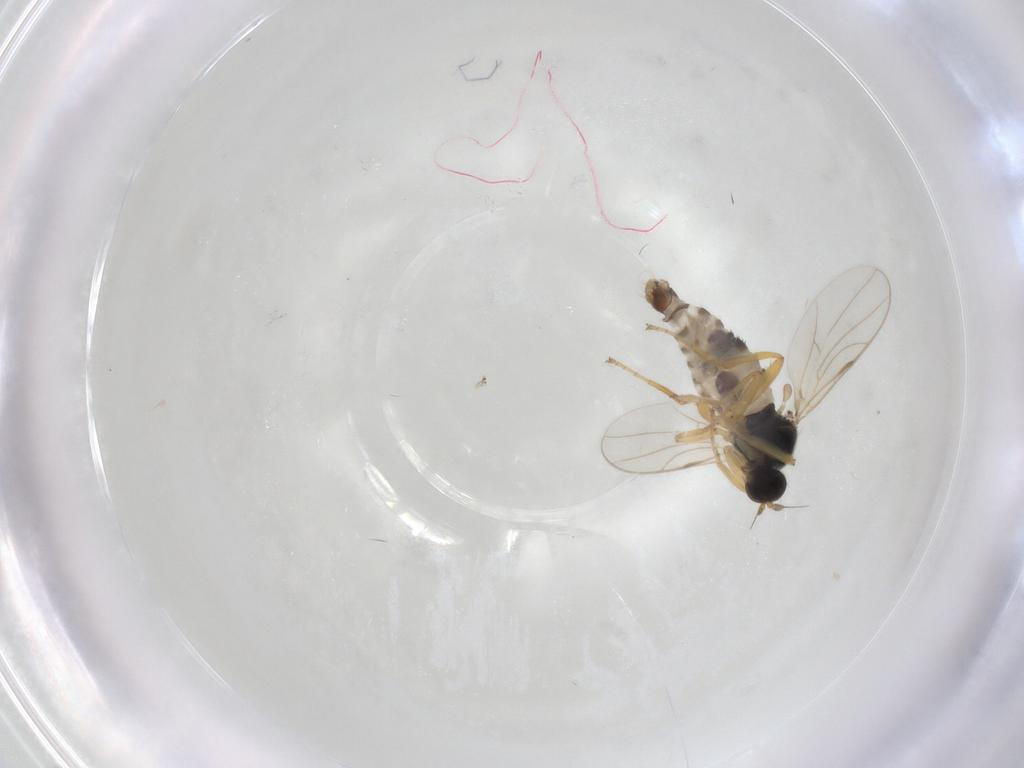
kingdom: Animalia
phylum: Arthropoda
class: Insecta
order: Diptera
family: Hybotidae
